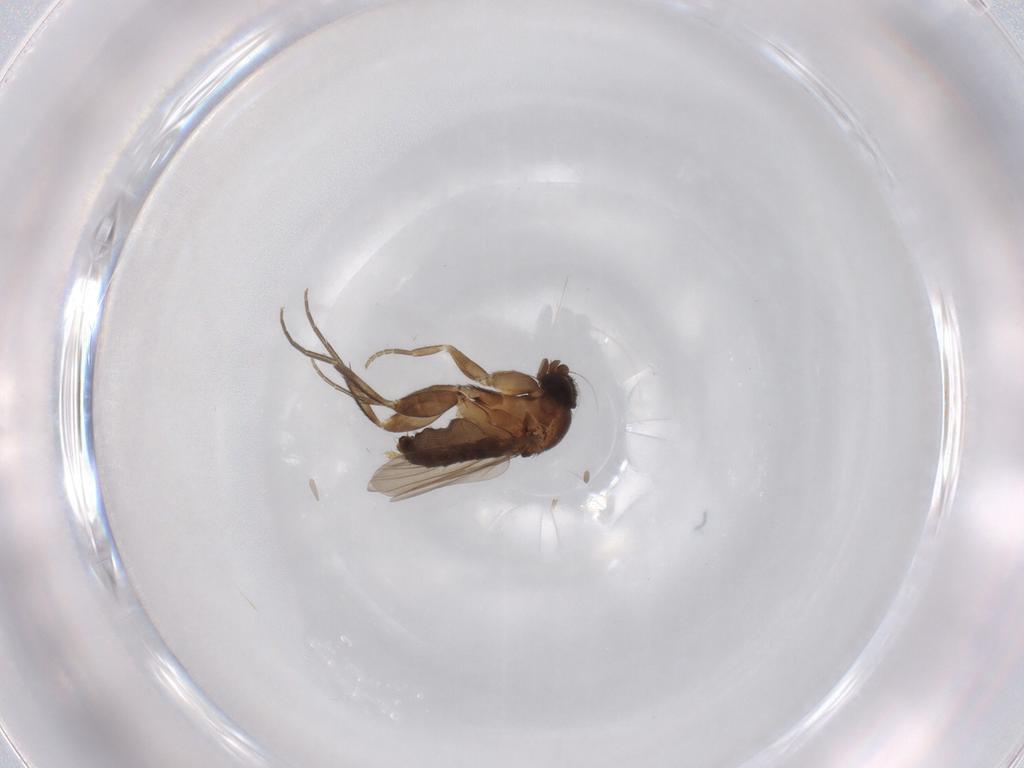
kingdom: Animalia
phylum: Arthropoda
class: Insecta
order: Diptera
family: Phoridae
